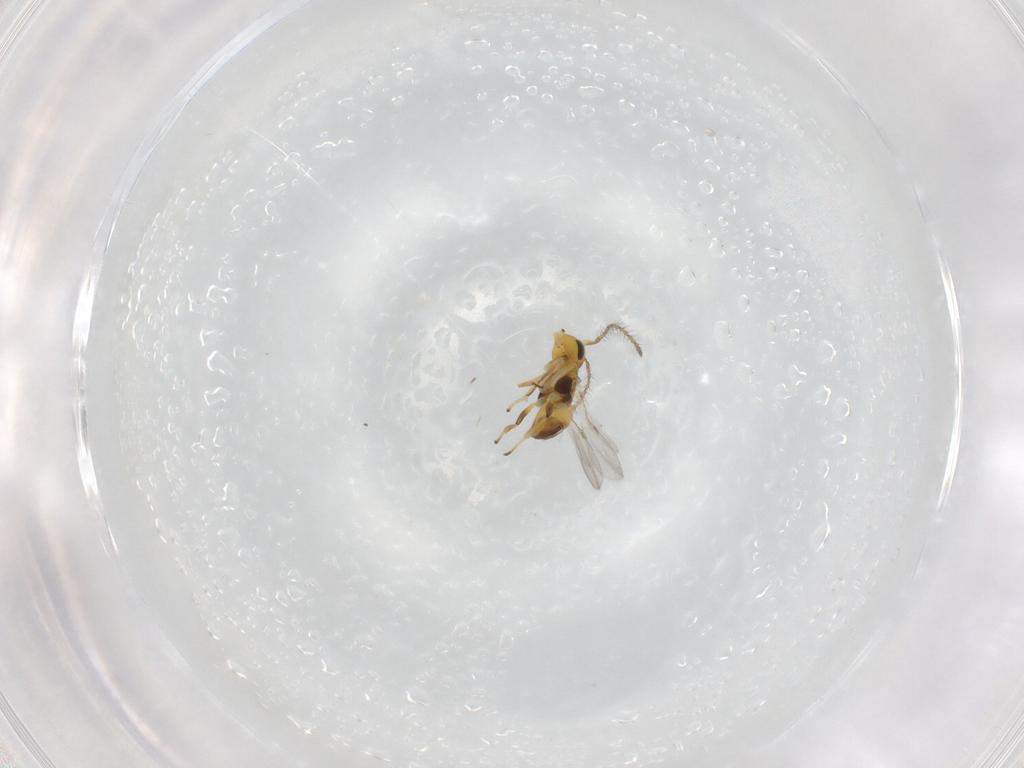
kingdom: Animalia
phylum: Arthropoda
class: Insecta
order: Hymenoptera
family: Encyrtidae
